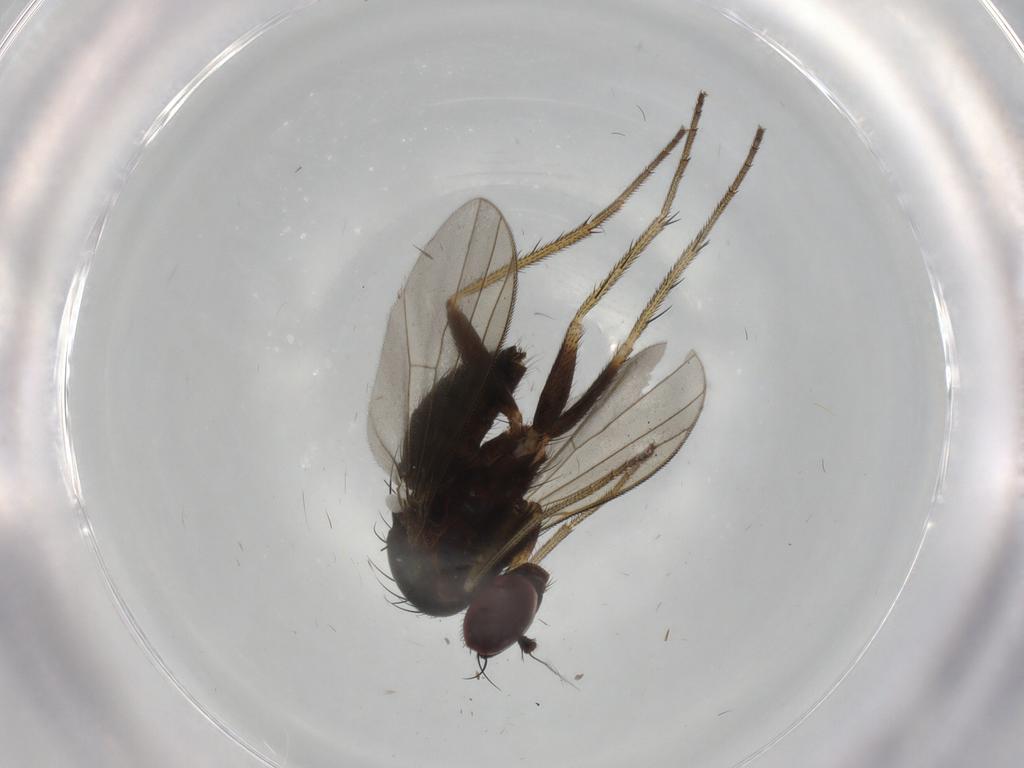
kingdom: Animalia
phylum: Arthropoda
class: Insecta
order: Diptera
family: Dolichopodidae
